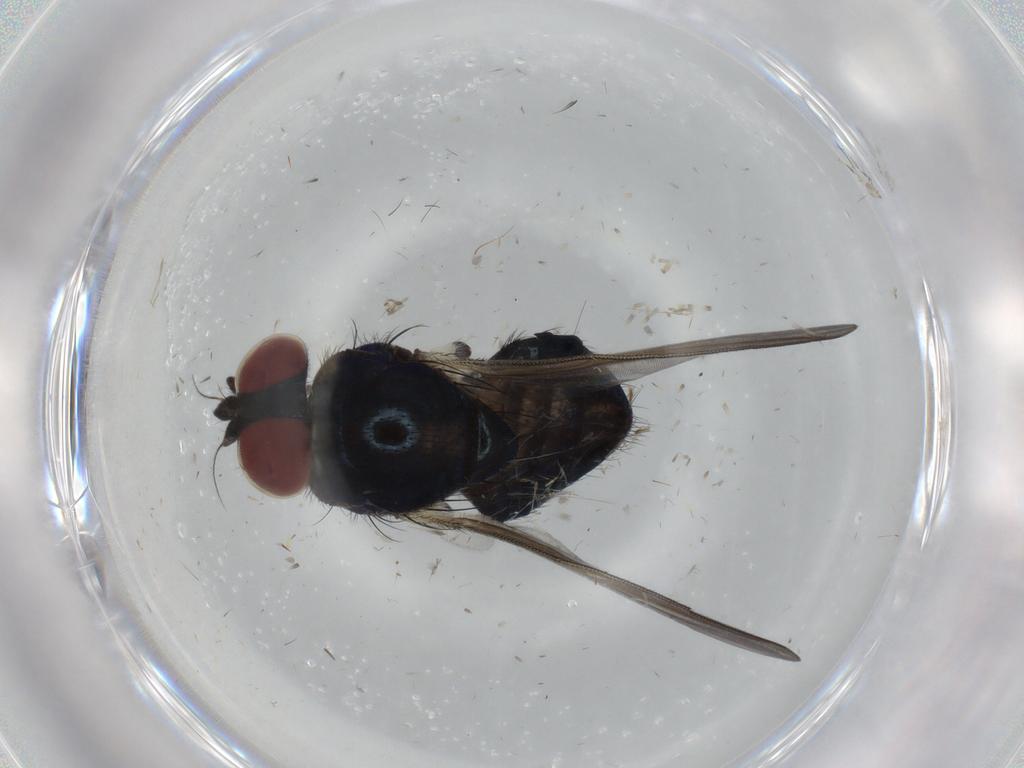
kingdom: Animalia
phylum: Arthropoda
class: Insecta
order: Diptera
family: Lonchaeidae
